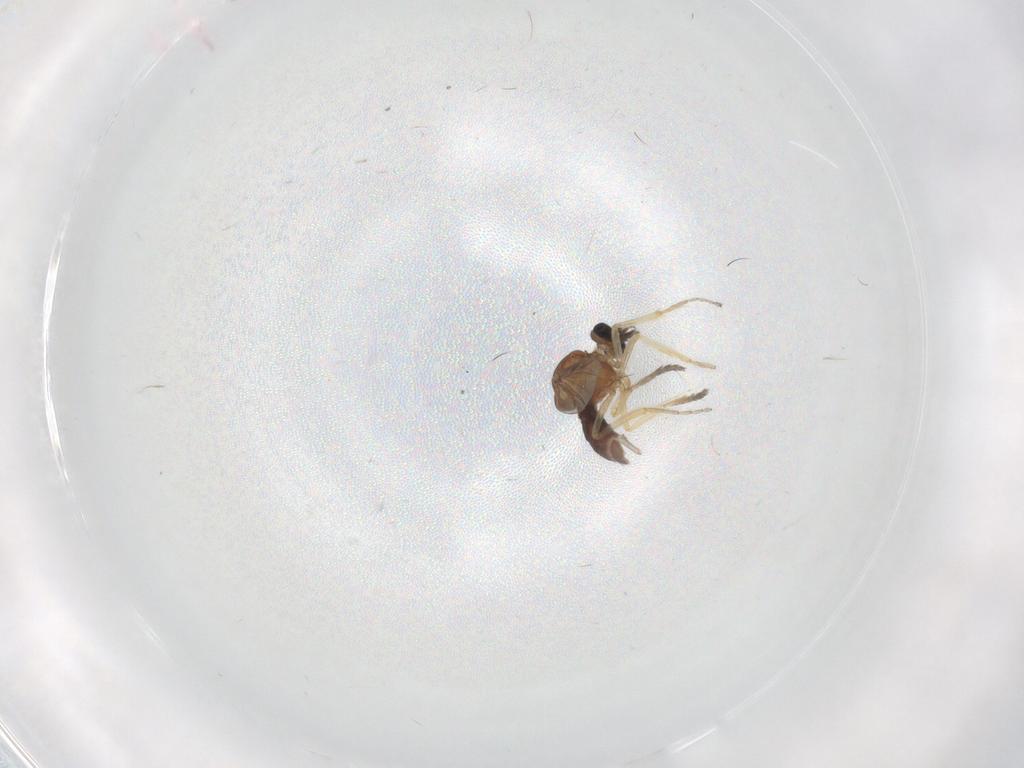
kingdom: Animalia
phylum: Arthropoda
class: Insecta
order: Diptera
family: Ceratopogonidae
